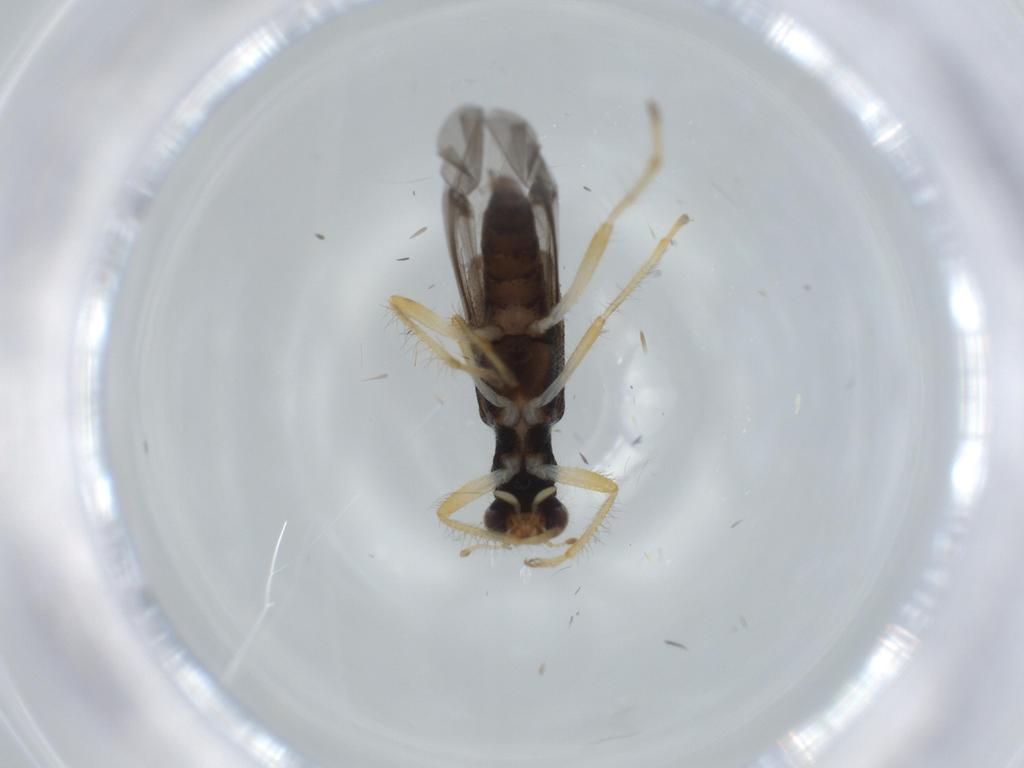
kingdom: Animalia
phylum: Arthropoda
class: Insecta
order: Coleoptera
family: Cleridae
